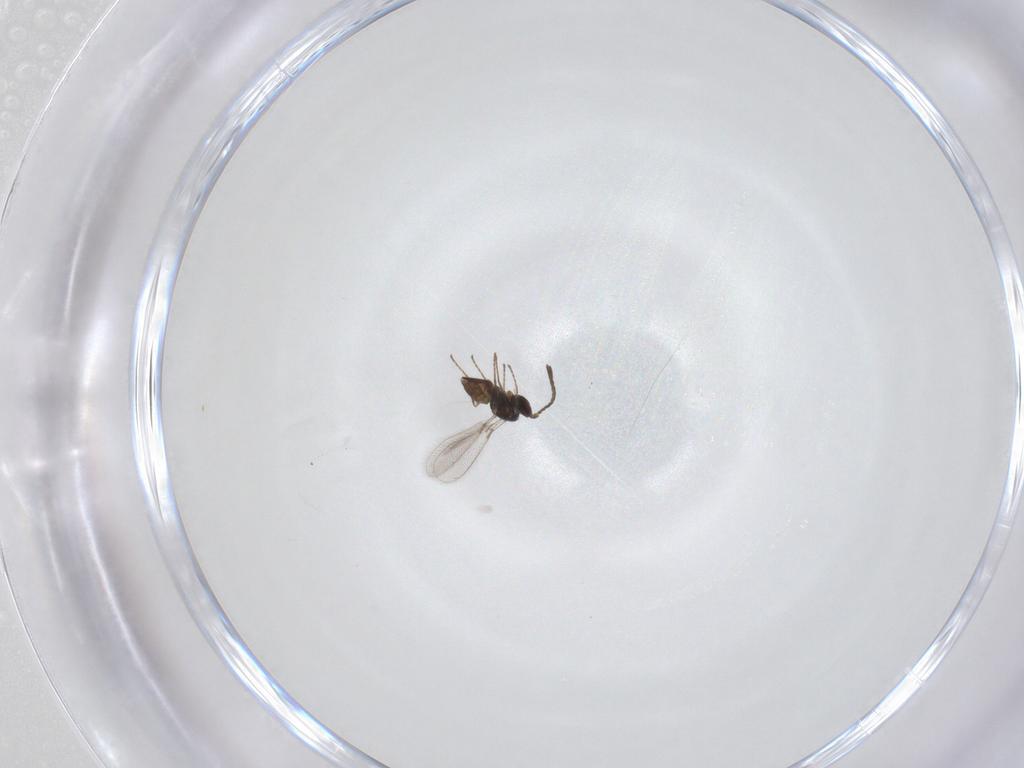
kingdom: Animalia
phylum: Arthropoda
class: Insecta
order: Hymenoptera
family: Mymaridae
